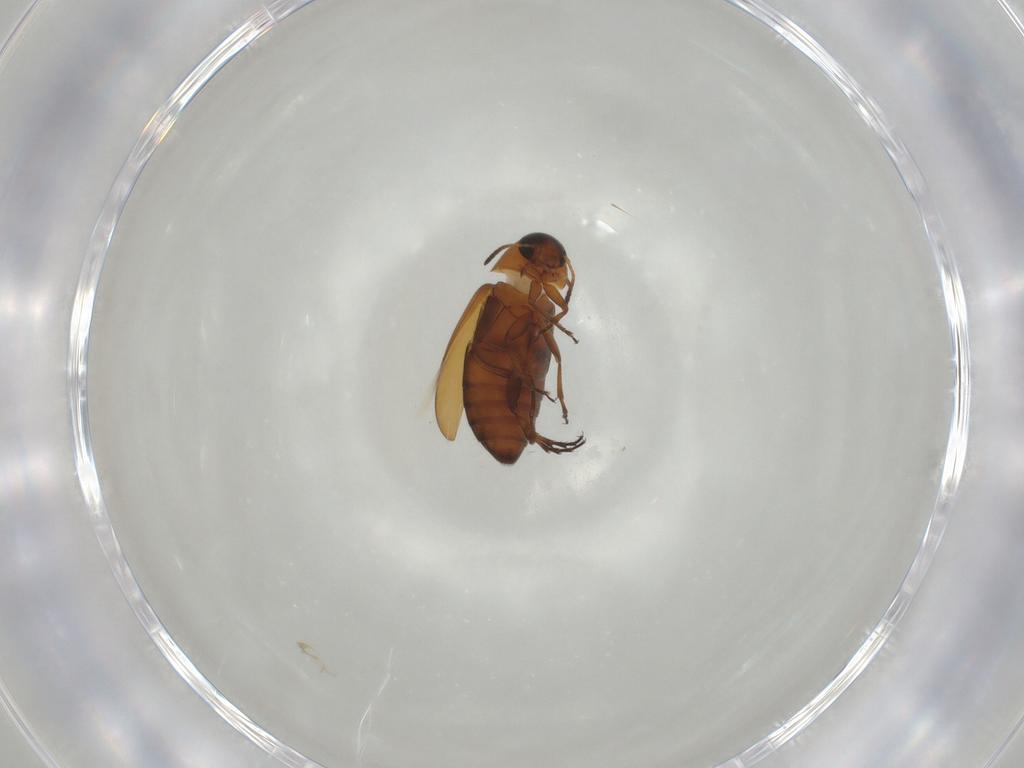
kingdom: Animalia
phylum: Arthropoda
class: Insecta
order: Coleoptera
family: Scraptiidae
